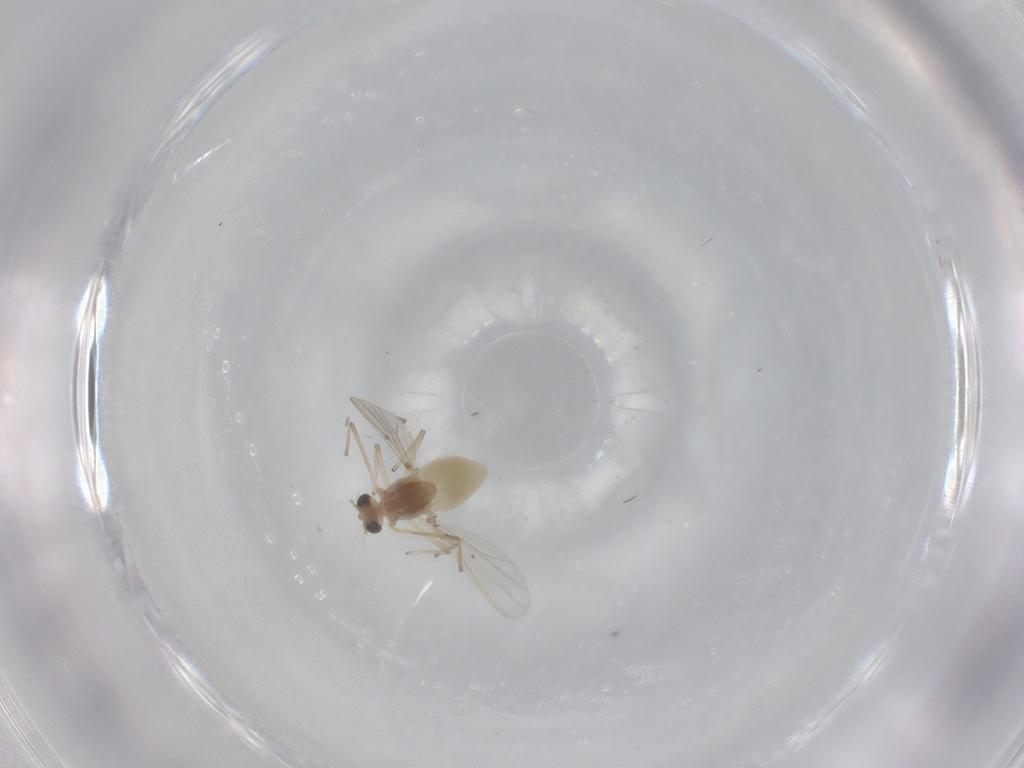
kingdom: Animalia
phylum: Arthropoda
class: Insecta
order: Diptera
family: Chironomidae
